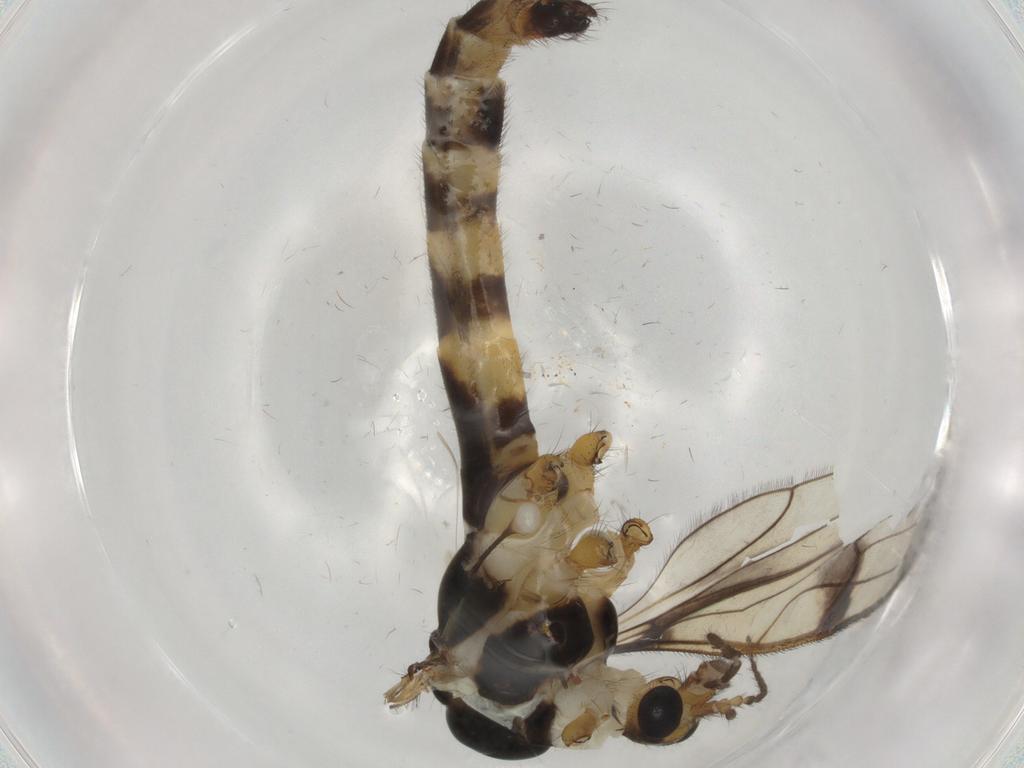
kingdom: Animalia
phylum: Arthropoda
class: Insecta
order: Diptera
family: Limoniidae
